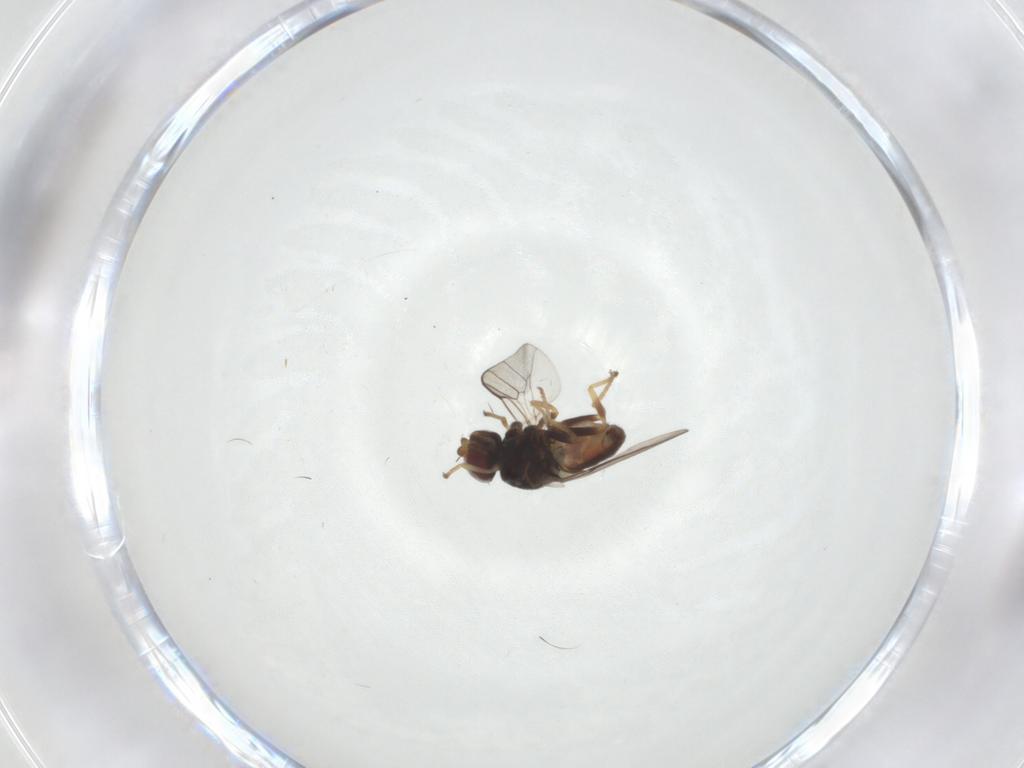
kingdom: Animalia
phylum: Arthropoda
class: Insecta
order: Diptera
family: Chloropidae
